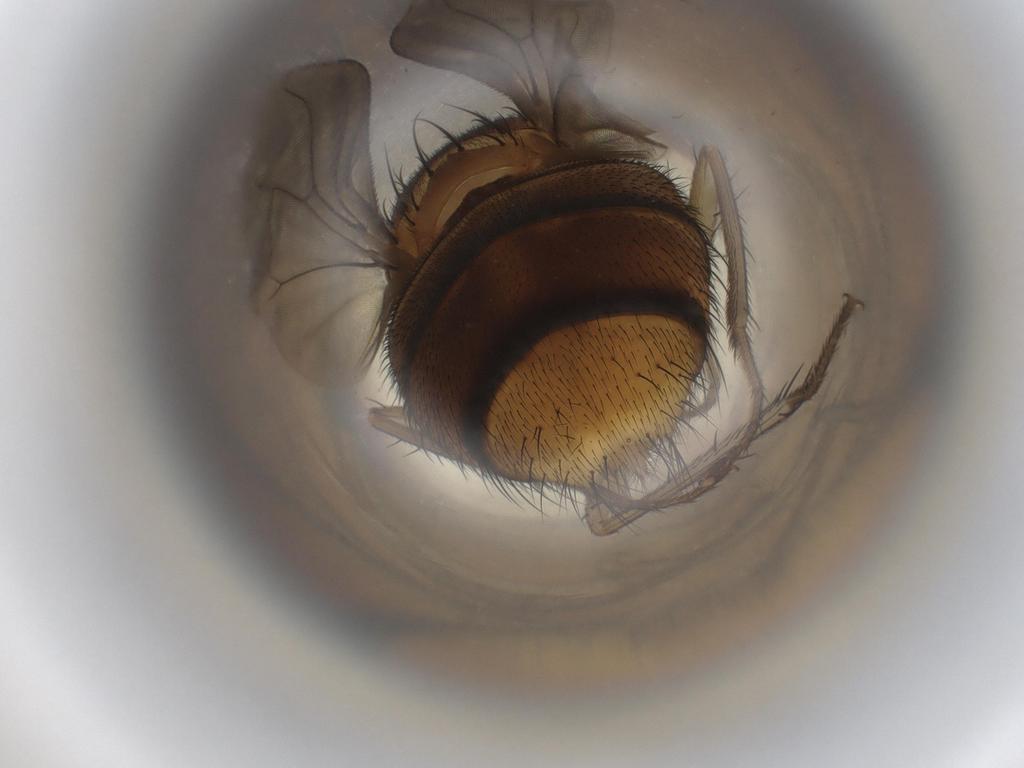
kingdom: Animalia
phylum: Arthropoda
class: Insecta
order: Diptera
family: Calliphoridae
